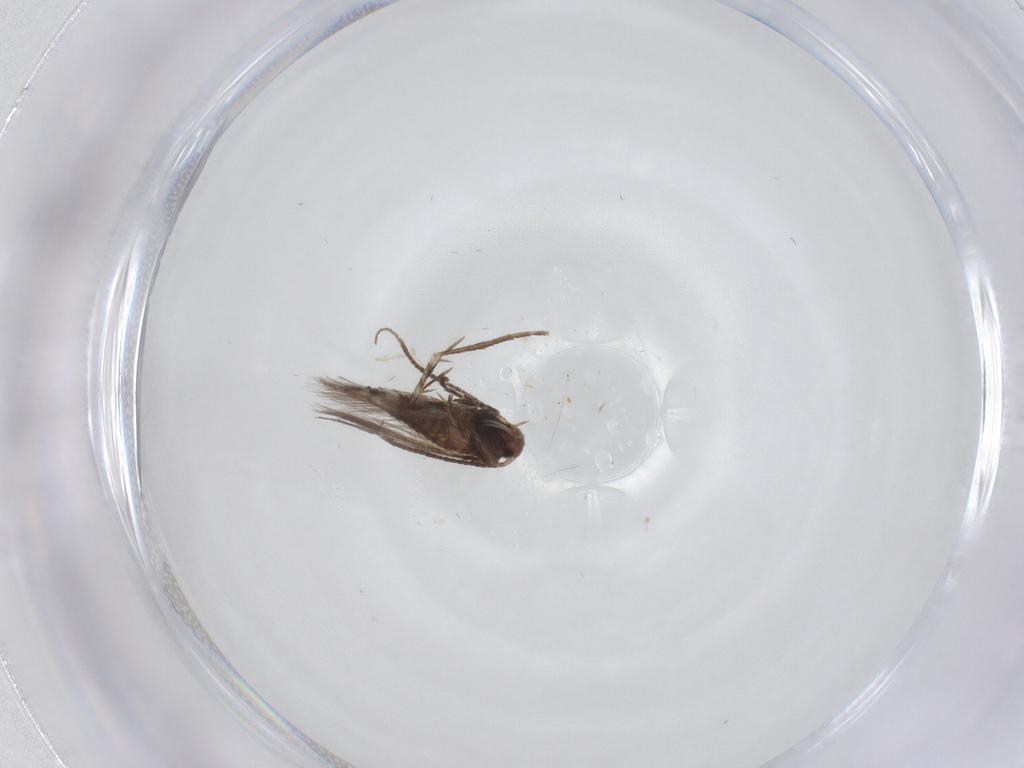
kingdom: Animalia
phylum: Arthropoda
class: Insecta
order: Lepidoptera
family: Gracillariidae
